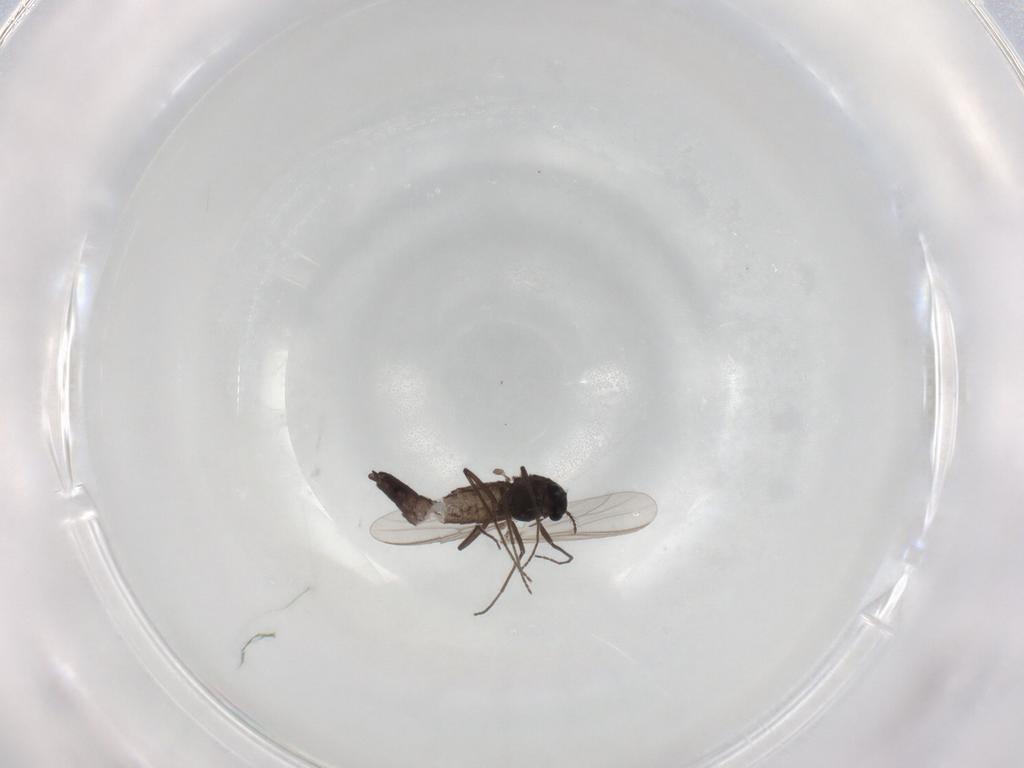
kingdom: Animalia
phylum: Arthropoda
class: Insecta
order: Diptera
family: Chironomidae
